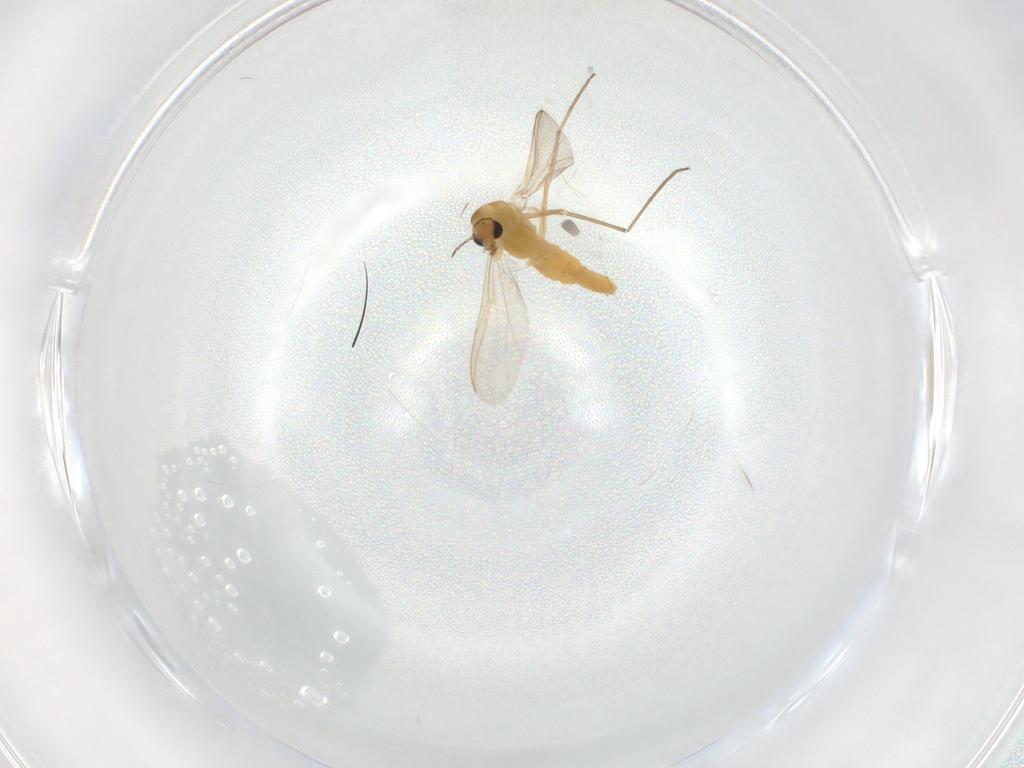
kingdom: Animalia
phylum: Arthropoda
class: Insecta
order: Diptera
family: Chironomidae
